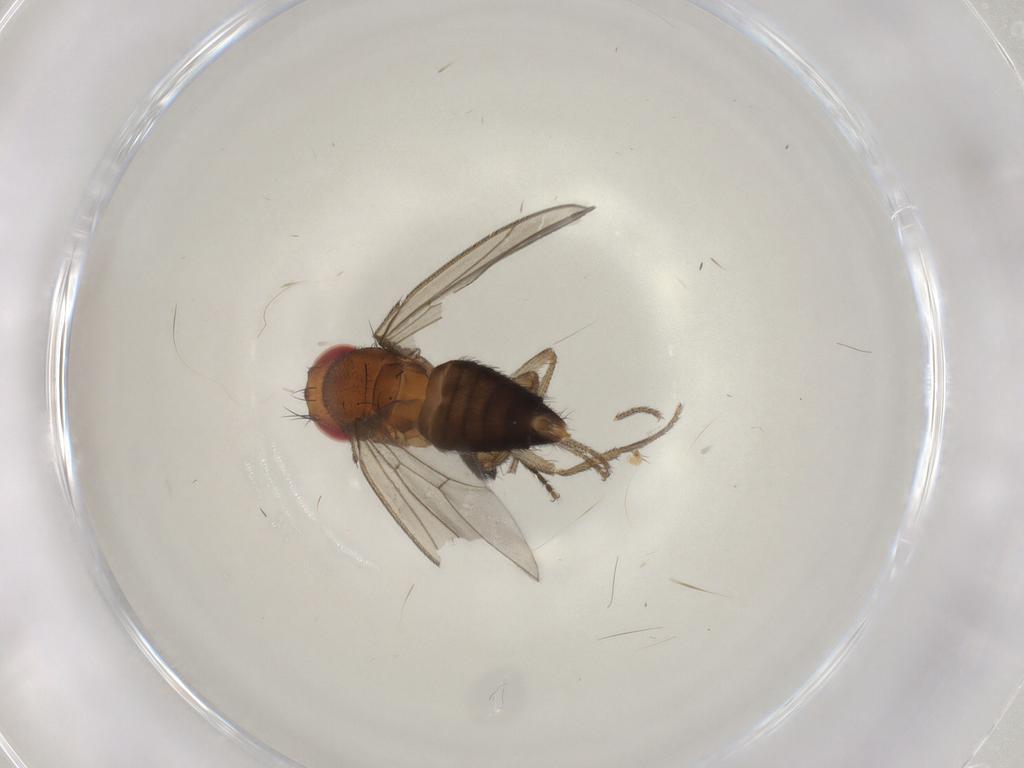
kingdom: Animalia
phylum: Arthropoda
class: Insecta
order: Diptera
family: Drosophilidae
